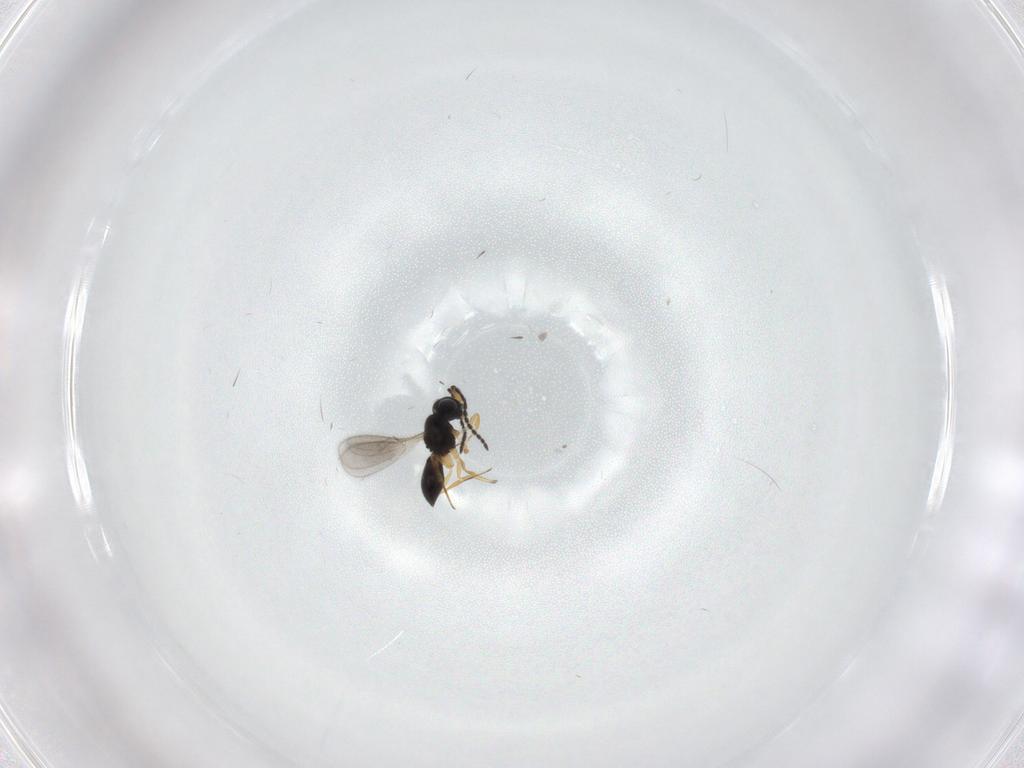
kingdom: Animalia
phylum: Arthropoda
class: Insecta
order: Hymenoptera
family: Scelionidae
